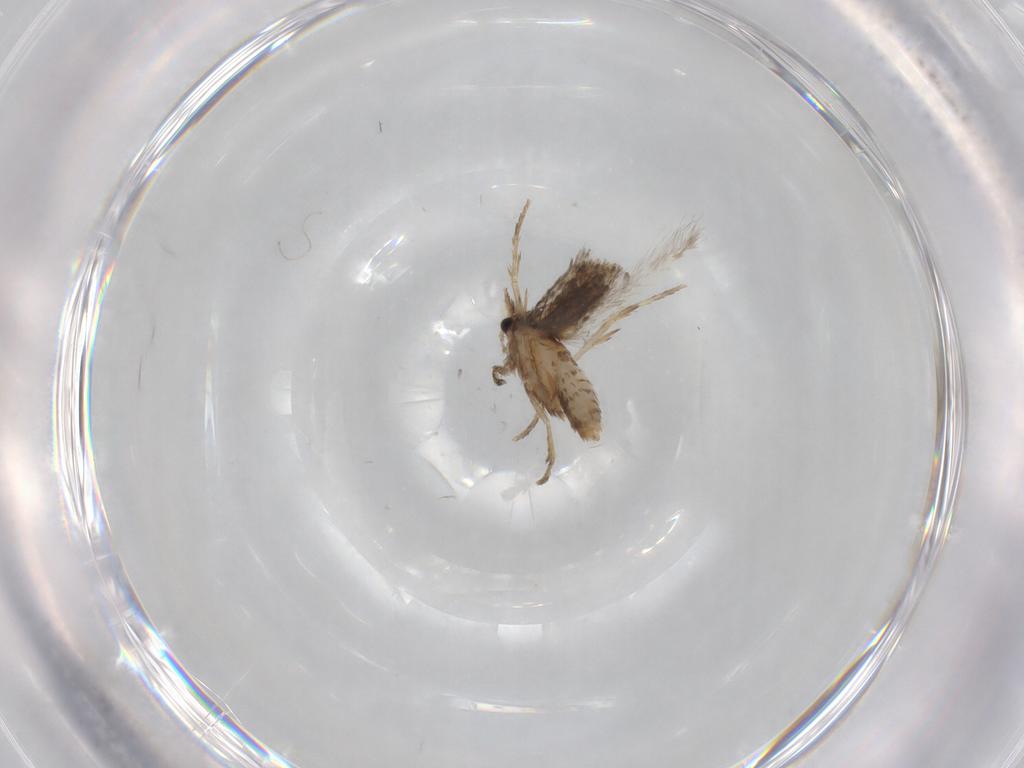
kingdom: Animalia
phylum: Arthropoda
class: Insecta
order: Lepidoptera
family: Nepticulidae
